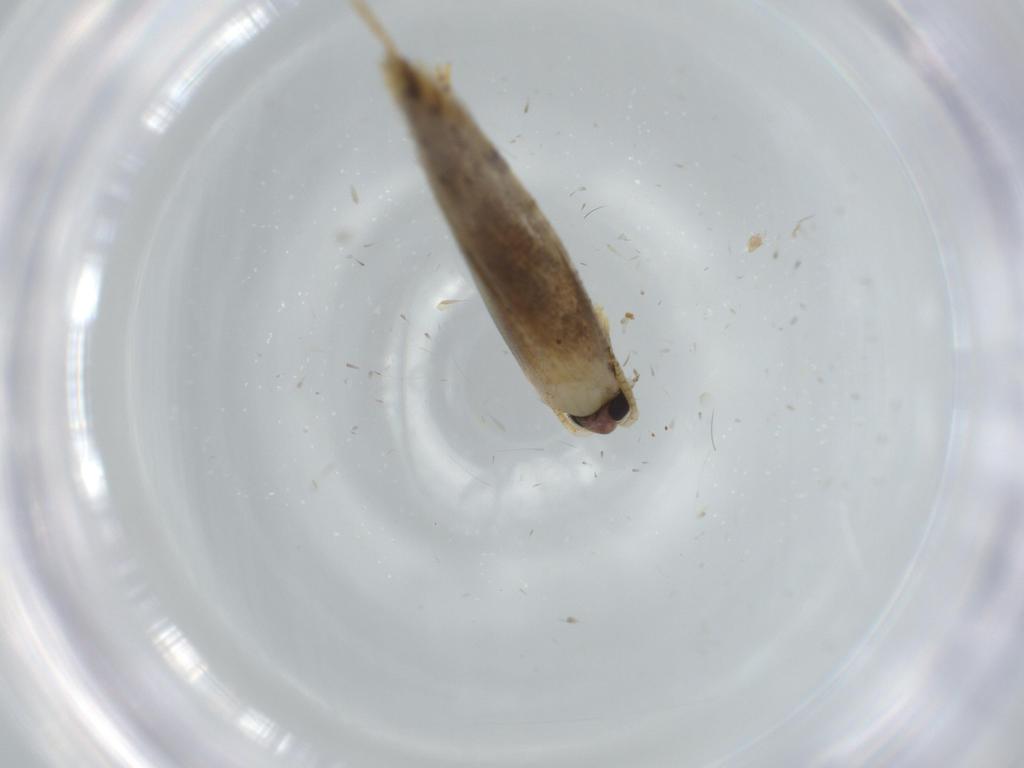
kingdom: Animalia
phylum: Arthropoda
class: Insecta
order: Lepidoptera
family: Tineidae
